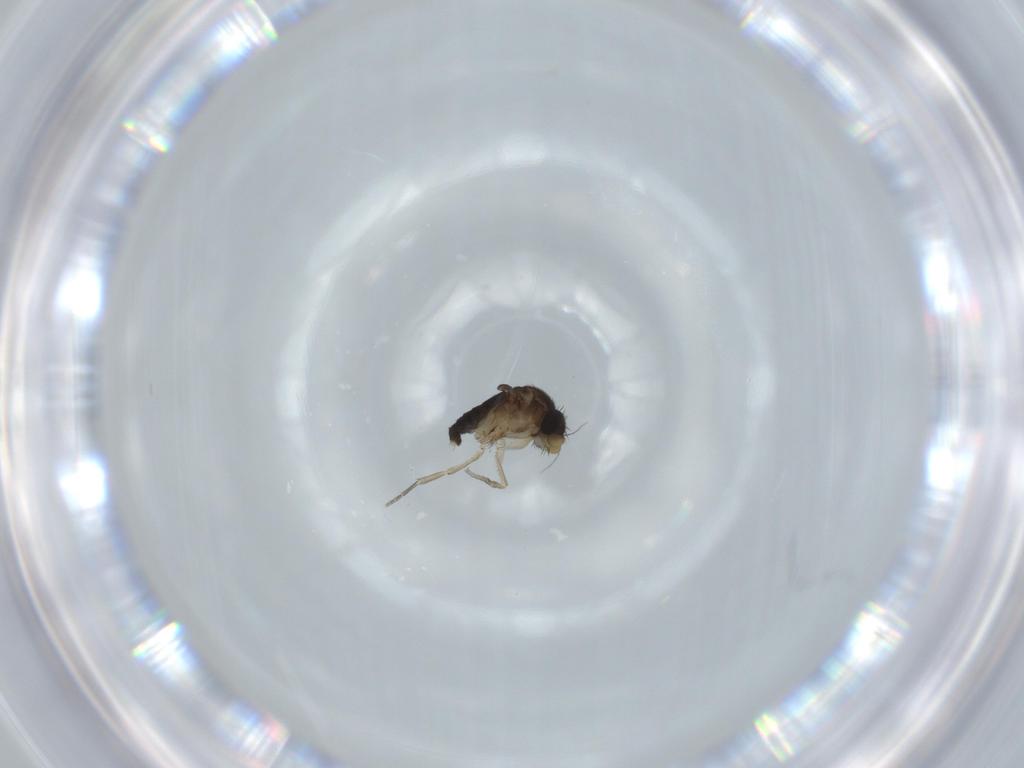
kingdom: Animalia
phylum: Arthropoda
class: Insecta
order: Diptera
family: Phoridae
